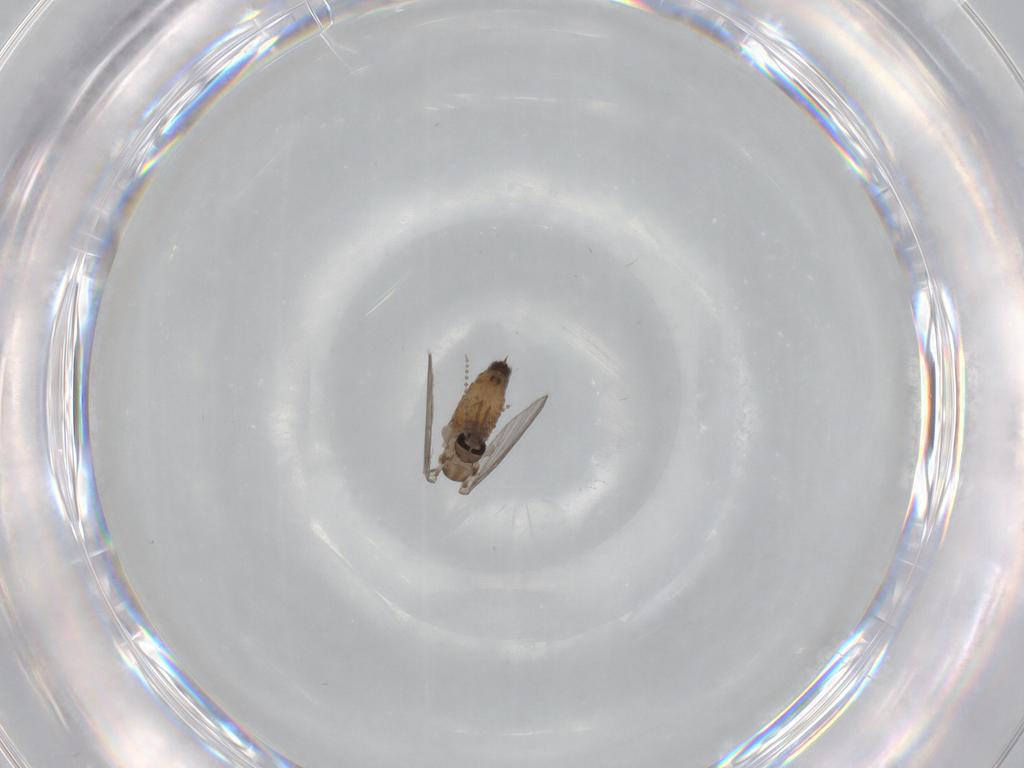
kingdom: Animalia
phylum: Arthropoda
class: Insecta
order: Diptera
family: Psychodidae
